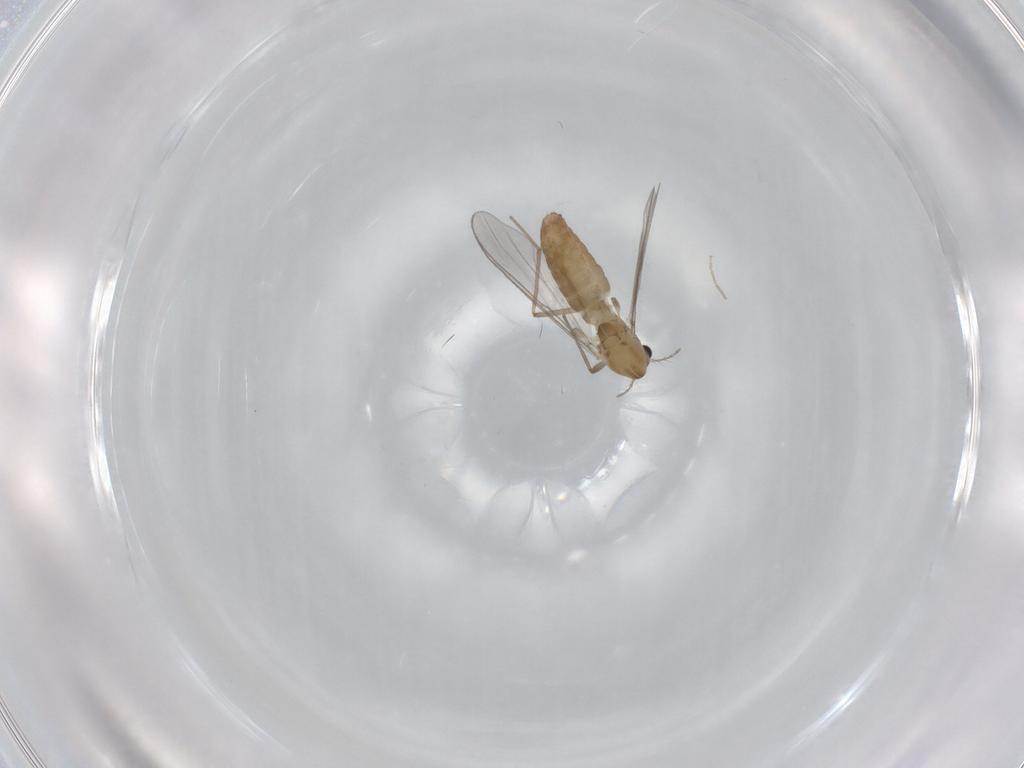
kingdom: Animalia
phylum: Arthropoda
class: Insecta
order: Diptera
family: Chironomidae
